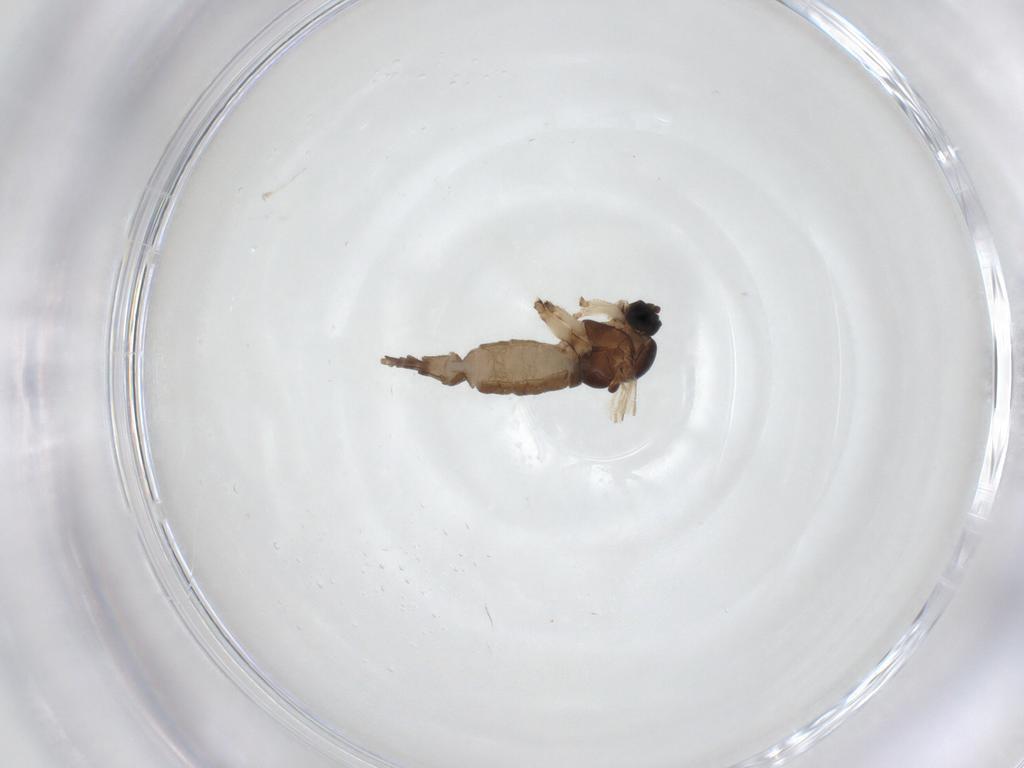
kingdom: Animalia
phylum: Arthropoda
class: Insecta
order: Diptera
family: Sciaridae
